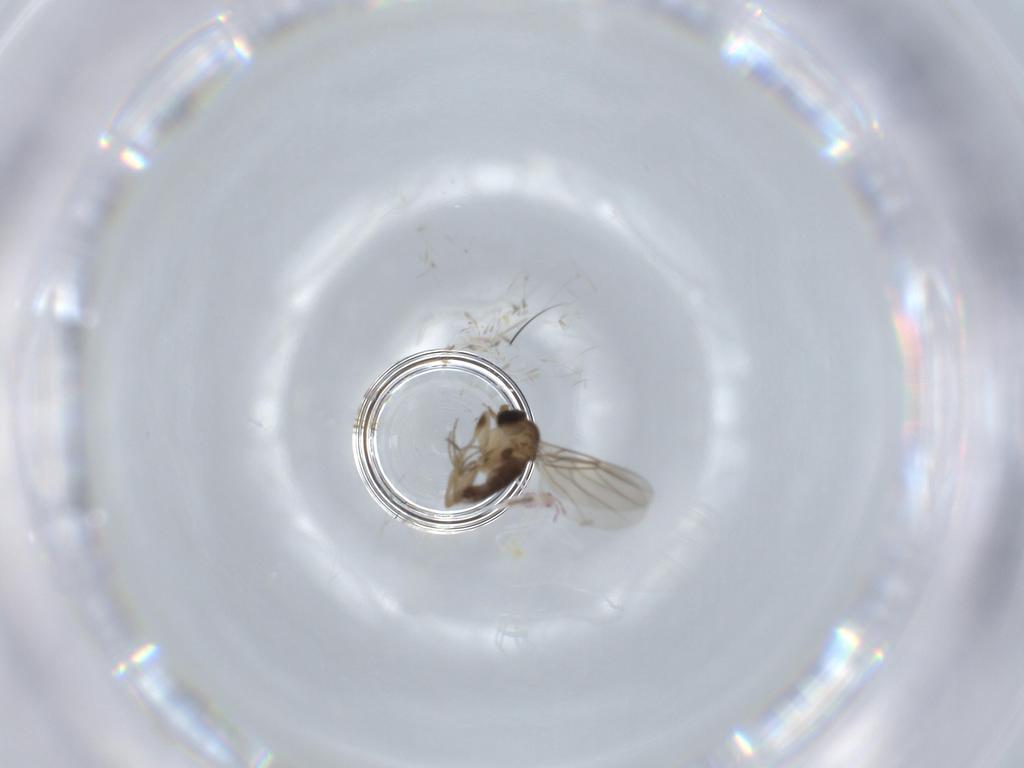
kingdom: Animalia
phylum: Arthropoda
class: Insecta
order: Diptera
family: Phoridae
